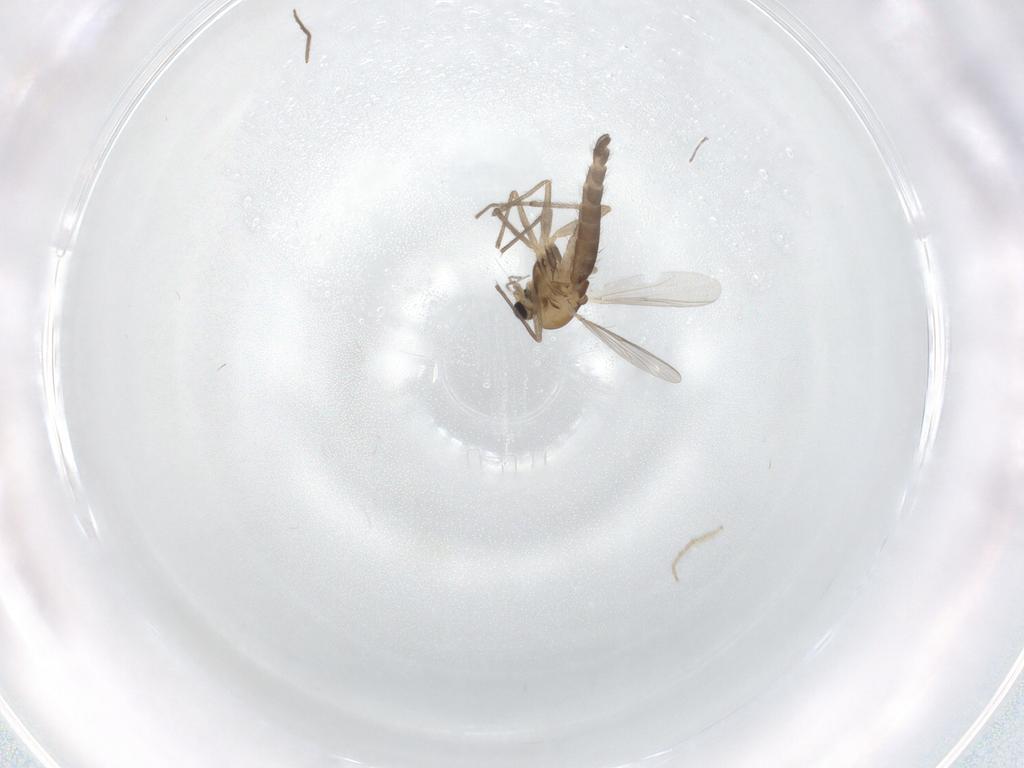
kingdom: Animalia
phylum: Arthropoda
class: Insecta
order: Diptera
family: Chironomidae
